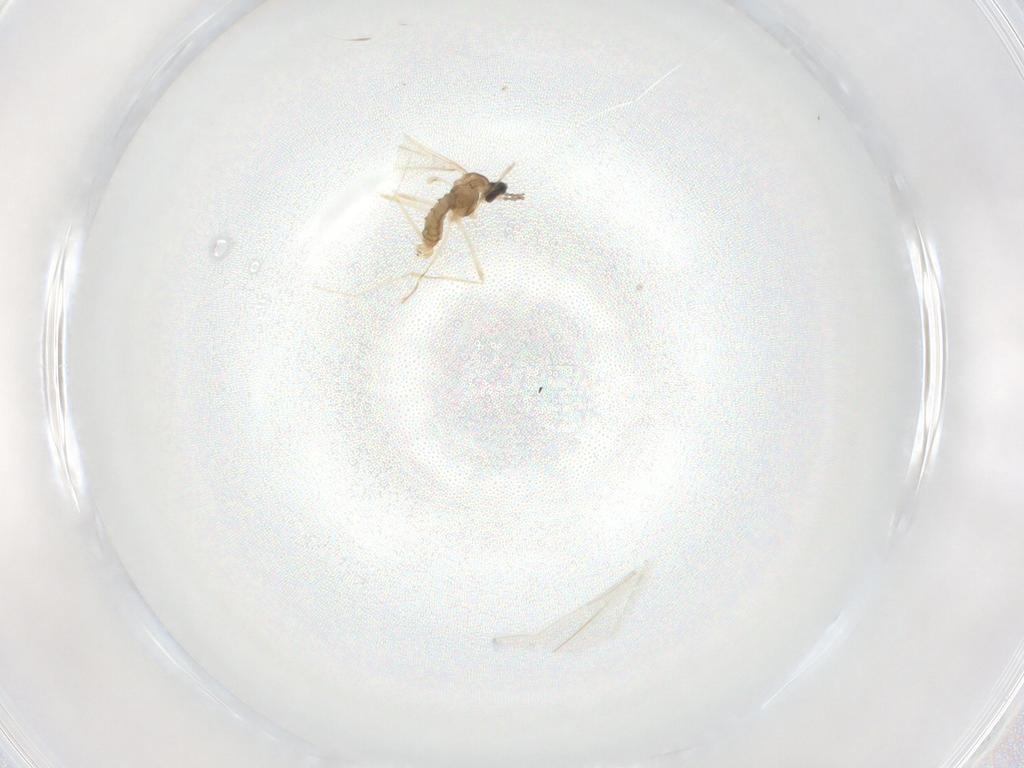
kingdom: Animalia
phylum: Arthropoda
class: Insecta
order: Diptera
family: Cecidomyiidae
